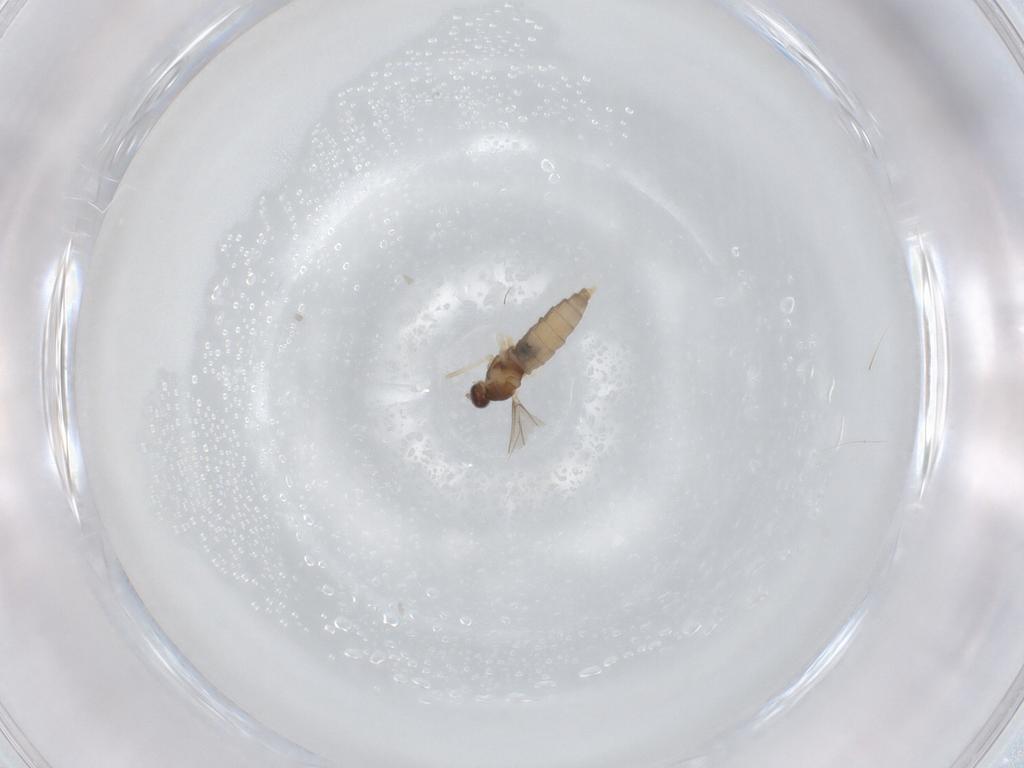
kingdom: Animalia
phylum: Arthropoda
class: Insecta
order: Diptera
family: Cecidomyiidae
